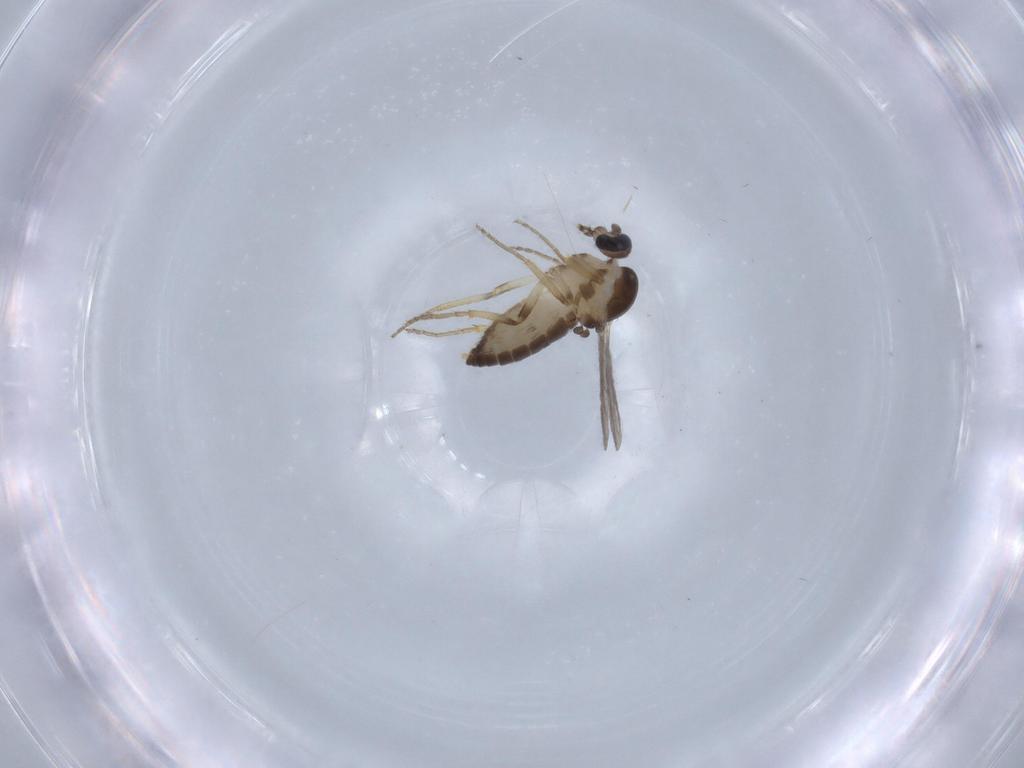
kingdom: Animalia
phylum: Arthropoda
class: Insecta
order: Diptera
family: Ceratopogonidae
